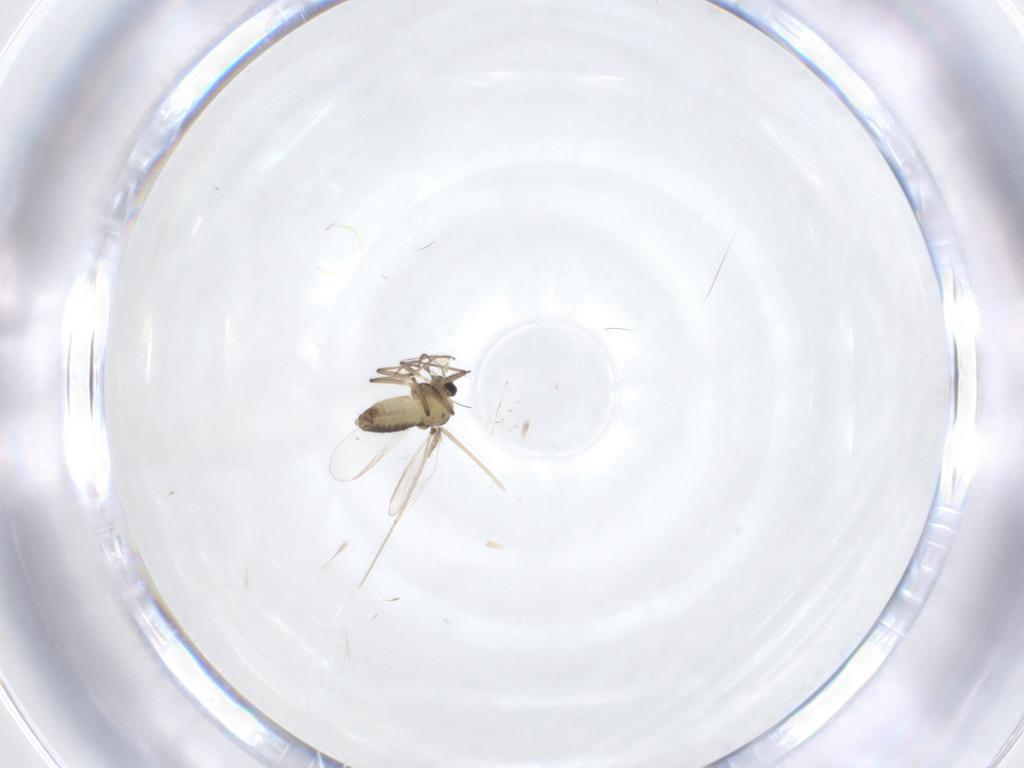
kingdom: Animalia
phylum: Arthropoda
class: Insecta
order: Diptera
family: Chironomidae
